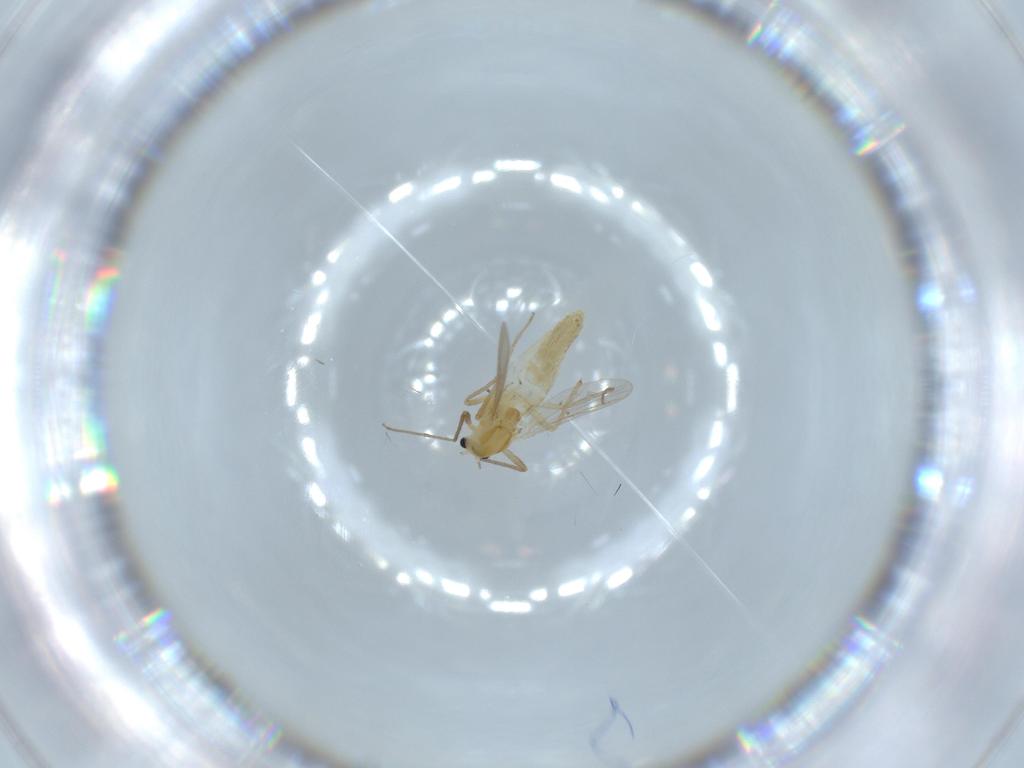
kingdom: Animalia
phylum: Arthropoda
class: Insecta
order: Diptera
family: Chironomidae
